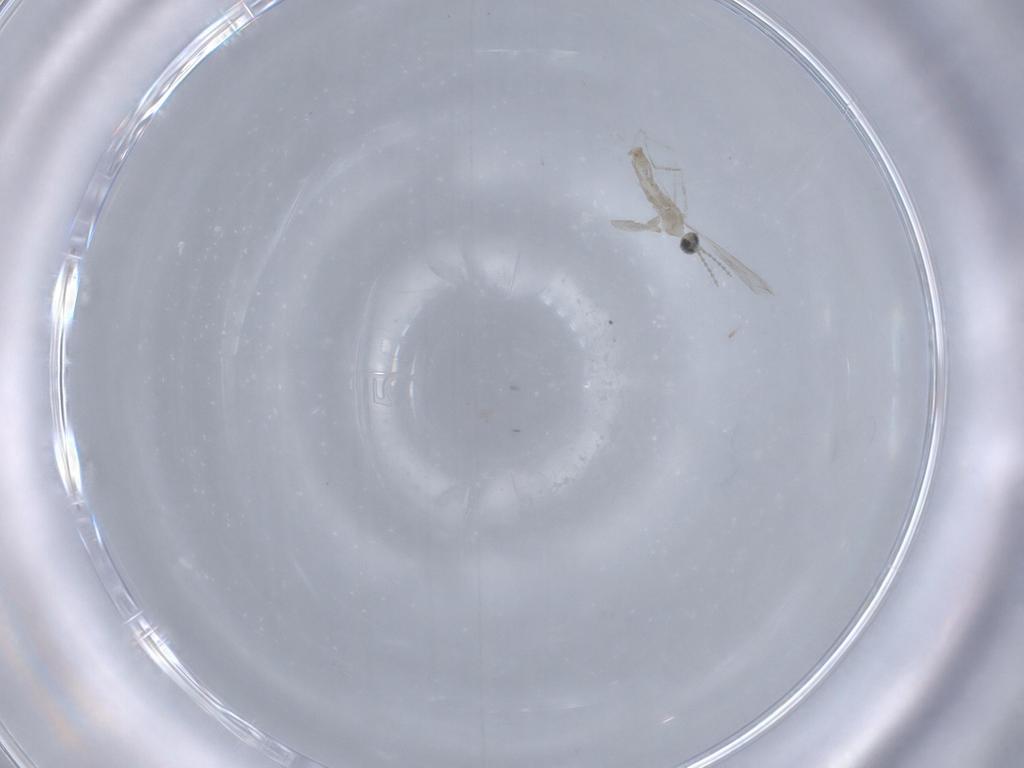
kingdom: Animalia
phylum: Arthropoda
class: Insecta
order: Diptera
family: Cecidomyiidae
